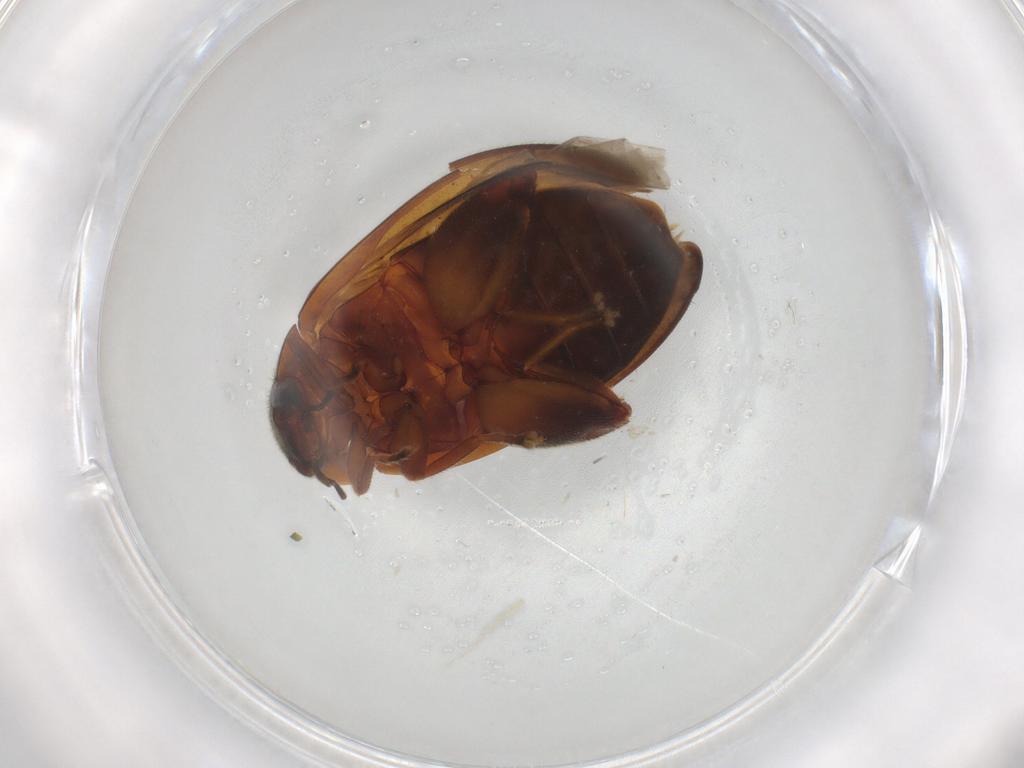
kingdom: Animalia
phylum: Arthropoda
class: Insecta
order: Coleoptera
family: Scirtidae
